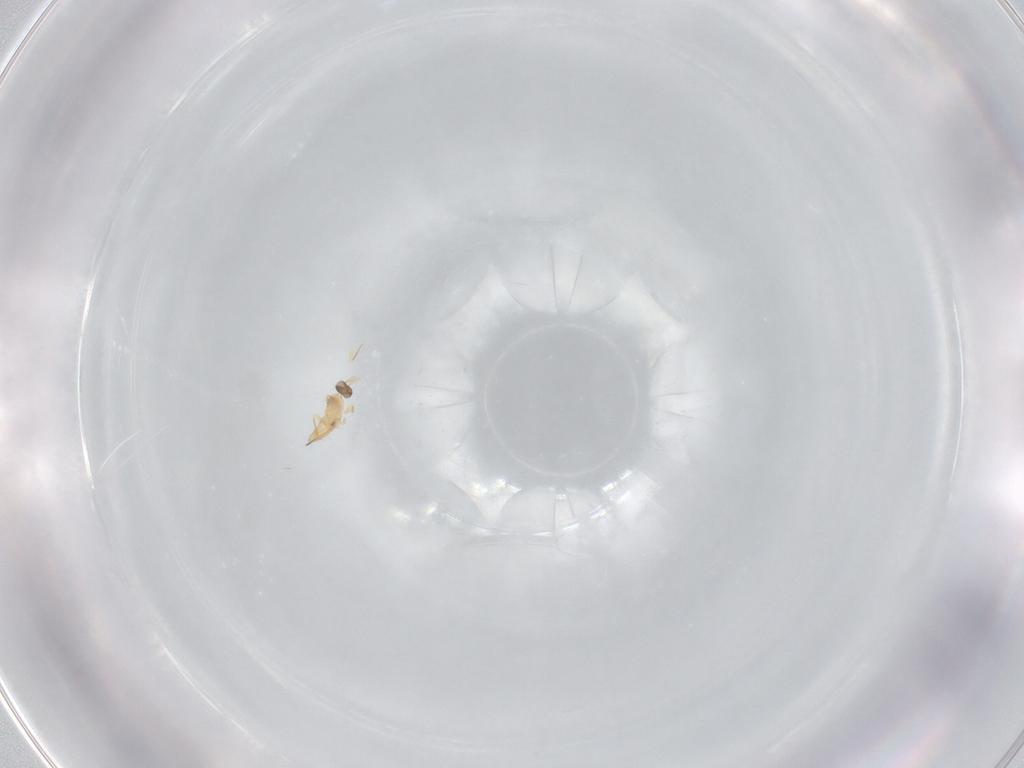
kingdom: Animalia
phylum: Arthropoda
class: Insecta
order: Hymenoptera
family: Mymaridae
